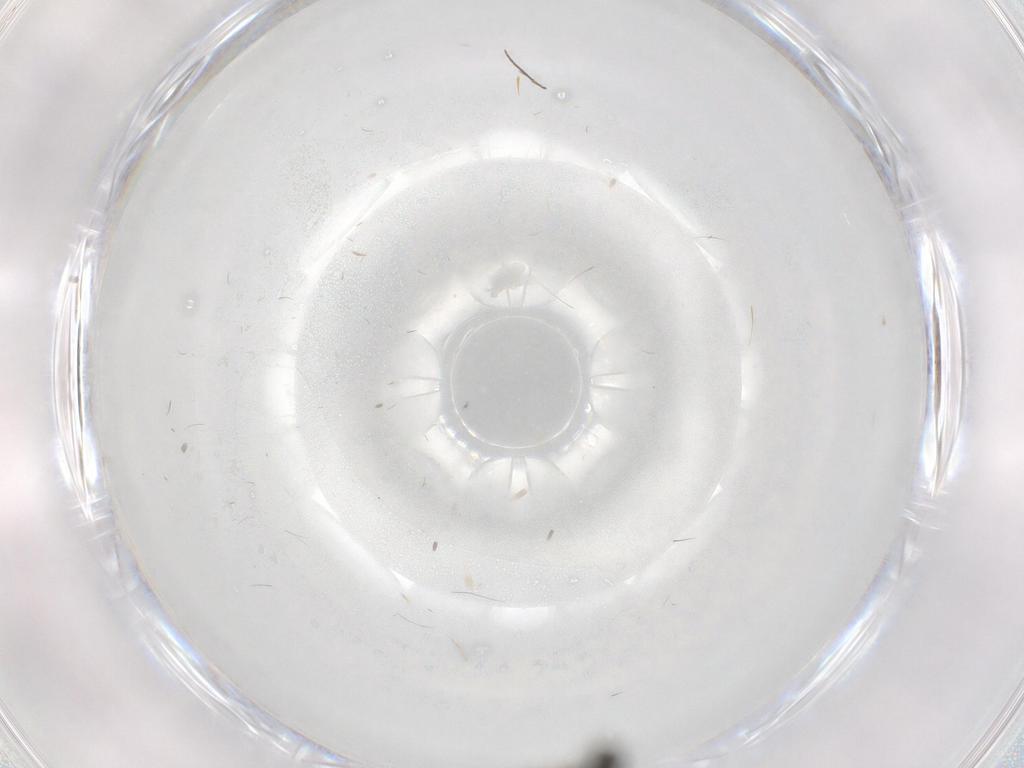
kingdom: Animalia
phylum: Arthropoda
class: Insecta
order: Diptera
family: Phoridae
